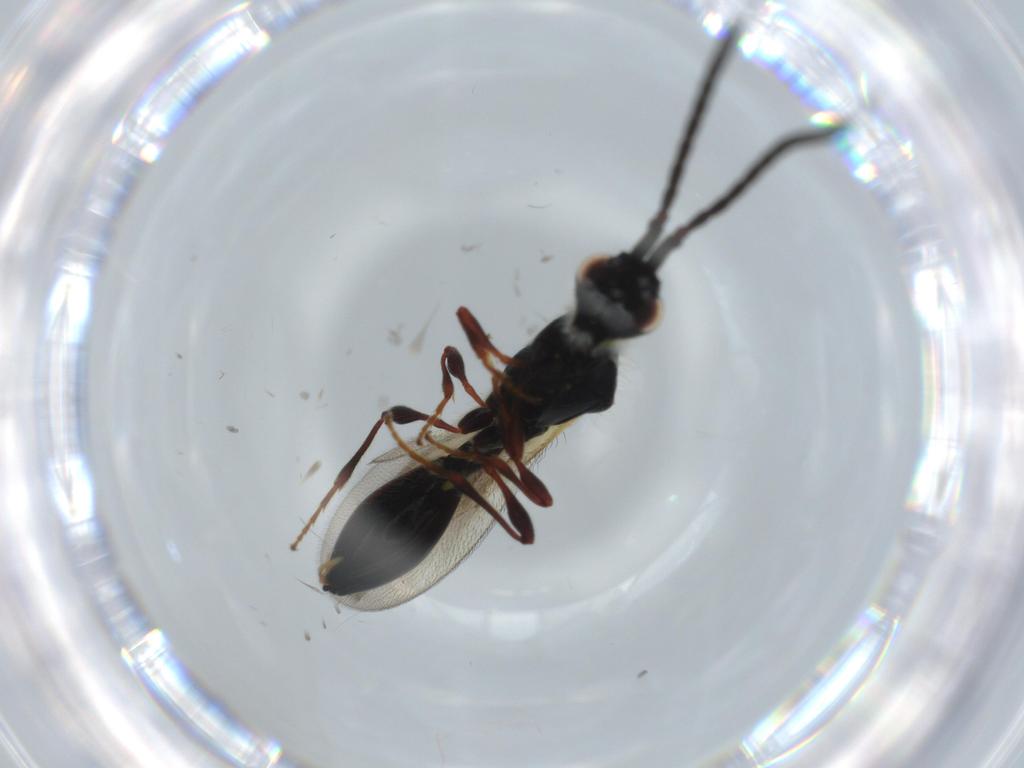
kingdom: Animalia
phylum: Arthropoda
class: Insecta
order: Hymenoptera
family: Diapriidae
